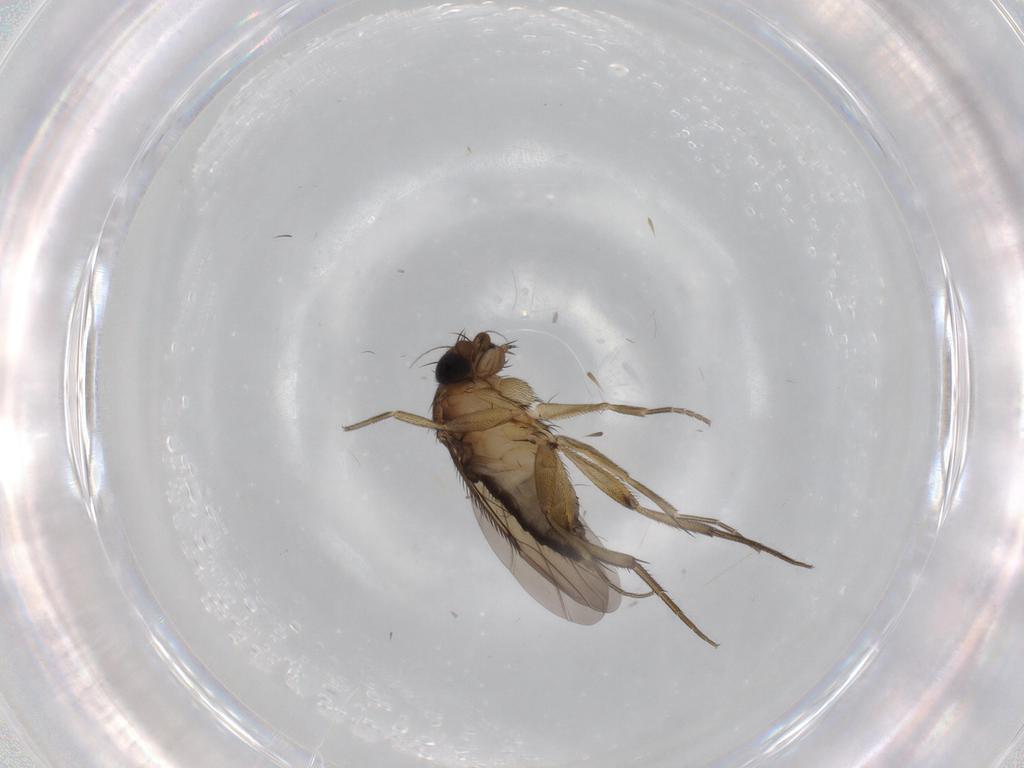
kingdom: Animalia
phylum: Arthropoda
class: Insecta
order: Diptera
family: Phoridae
